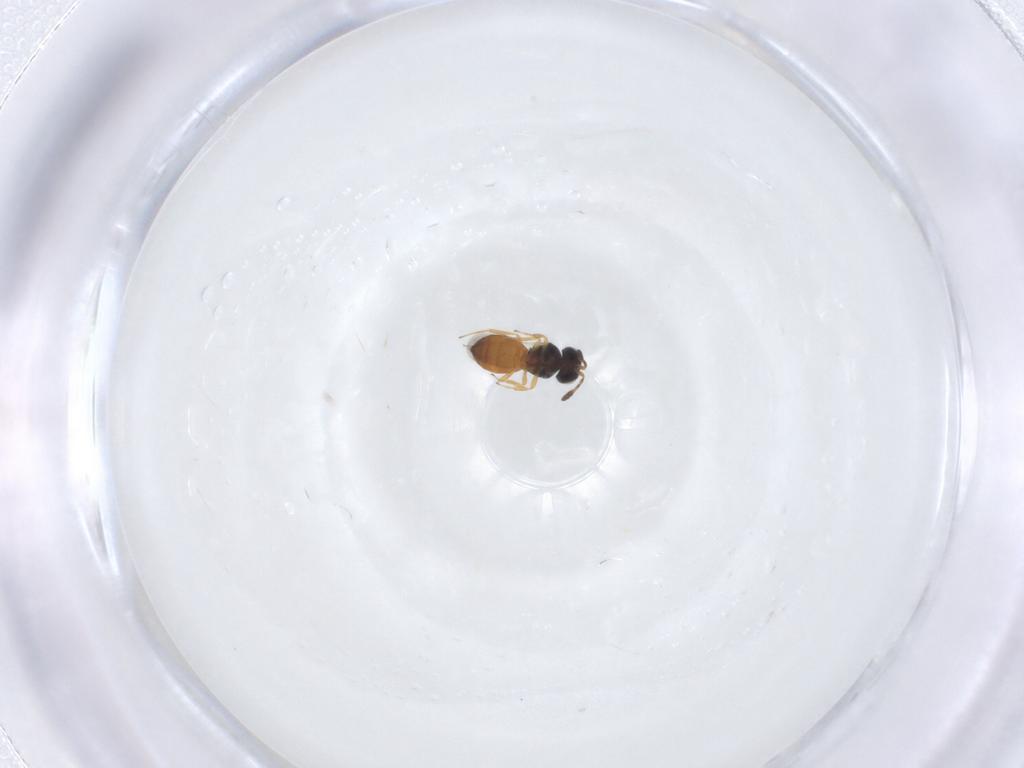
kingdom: Animalia
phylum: Arthropoda
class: Insecta
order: Hymenoptera
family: Scelionidae
